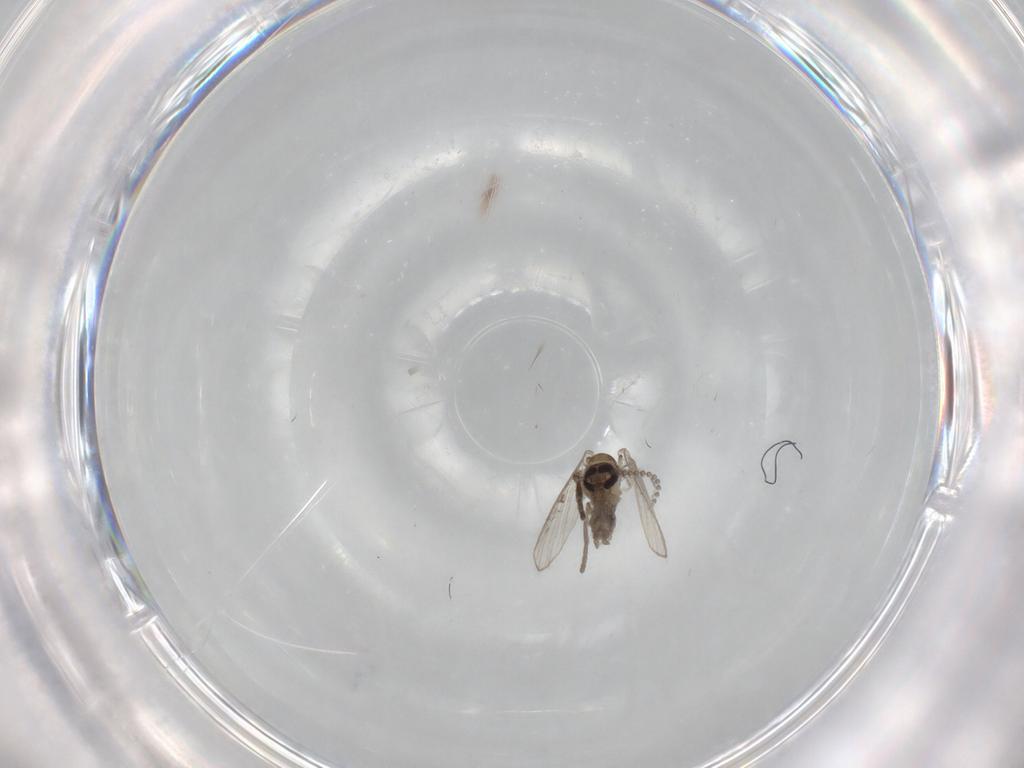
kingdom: Animalia
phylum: Arthropoda
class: Insecta
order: Diptera
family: Psychodidae
